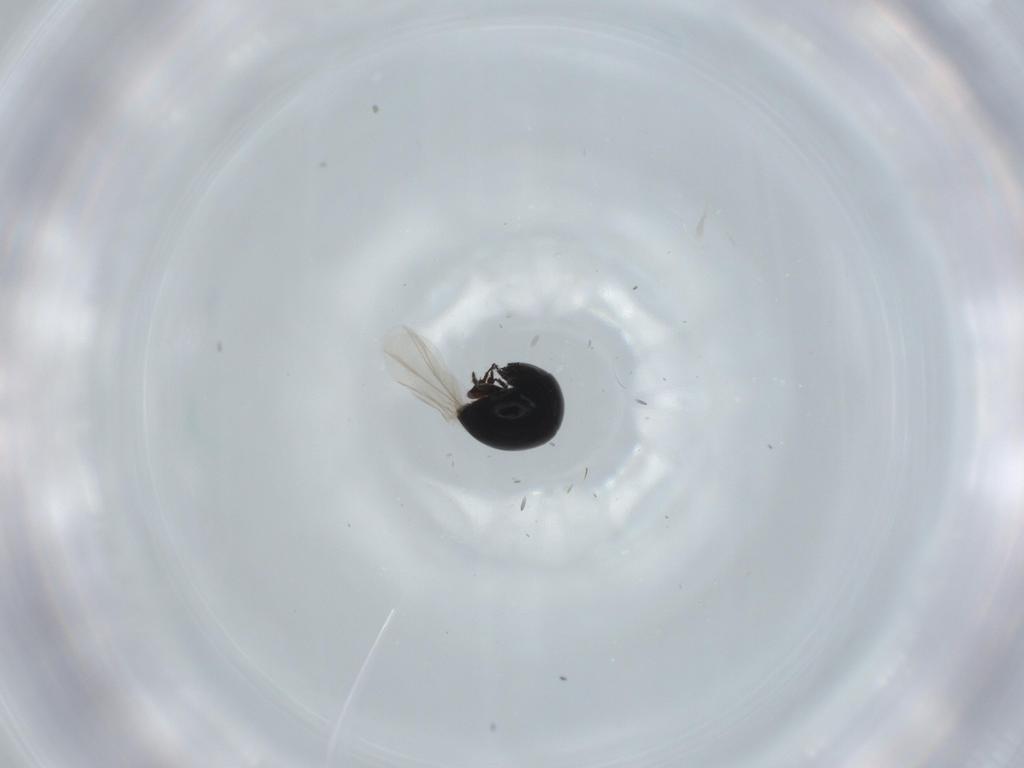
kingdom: Animalia
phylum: Arthropoda
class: Insecta
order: Coleoptera
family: Cybocephalidae
